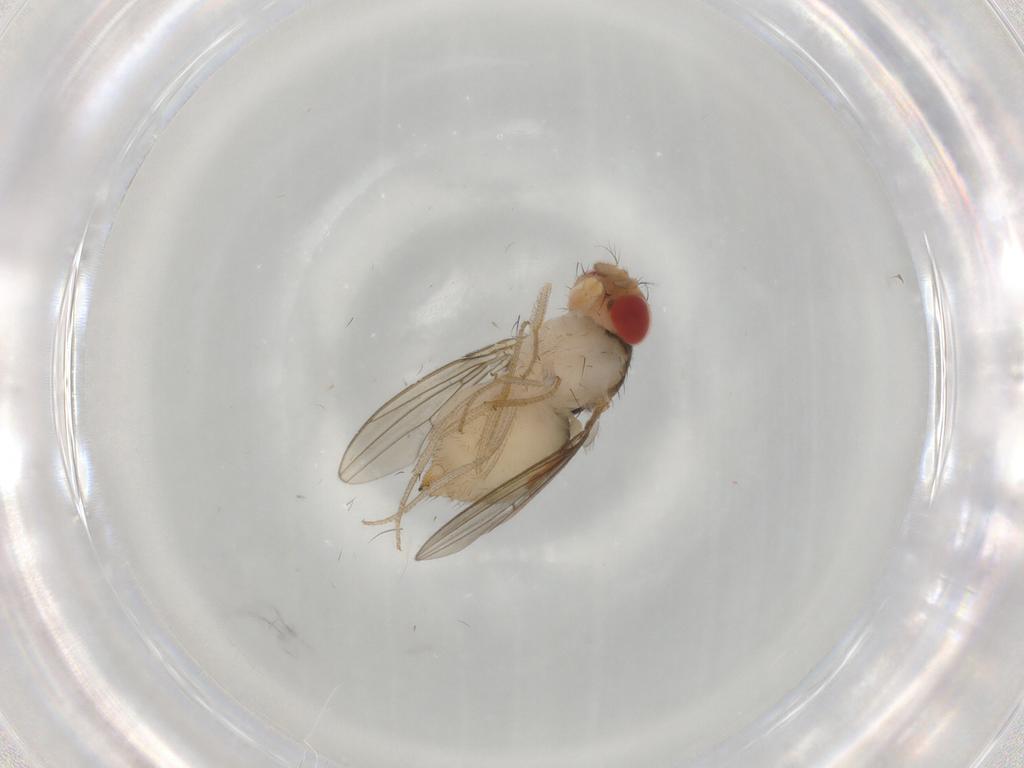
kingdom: Animalia
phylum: Arthropoda
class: Insecta
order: Diptera
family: Drosophilidae
